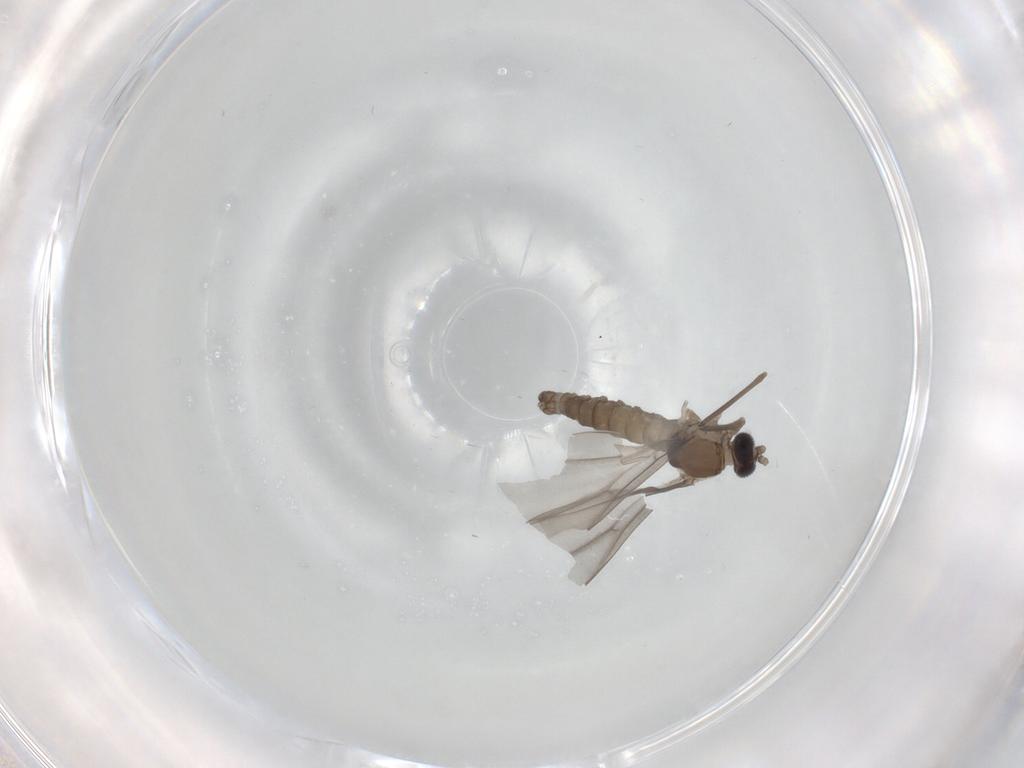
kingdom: Animalia
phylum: Arthropoda
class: Insecta
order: Diptera
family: Cecidomyiidae
